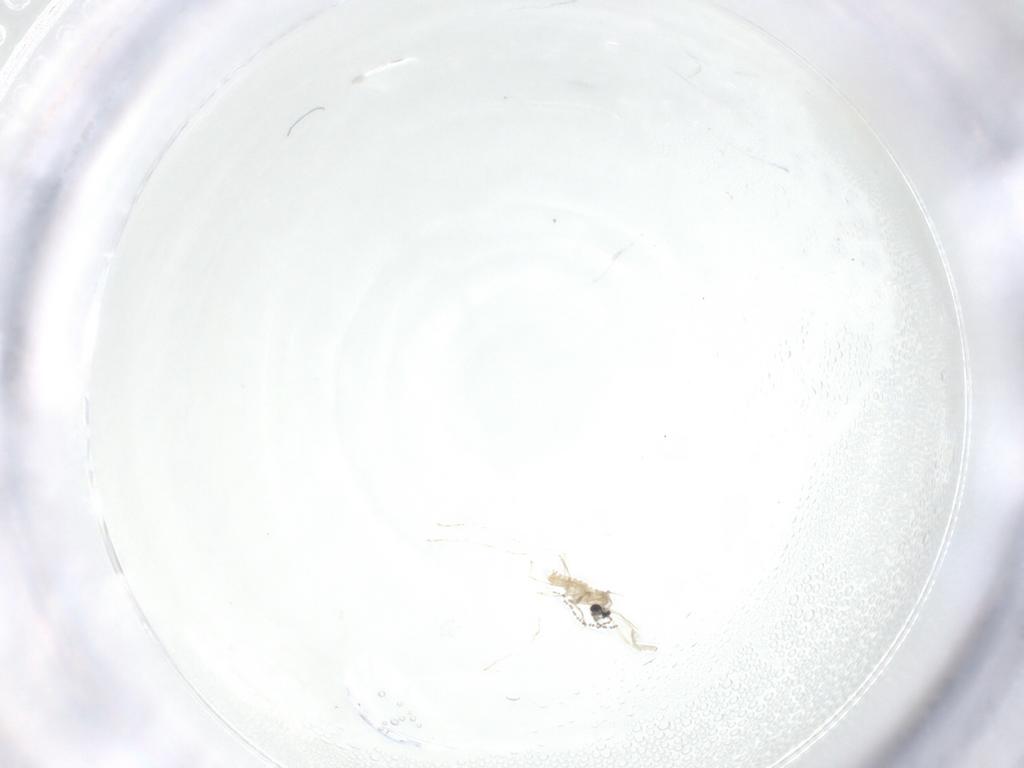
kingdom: Animalia
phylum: Arthropoda
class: Insecta
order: Diptera
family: Cecidomyiidae
